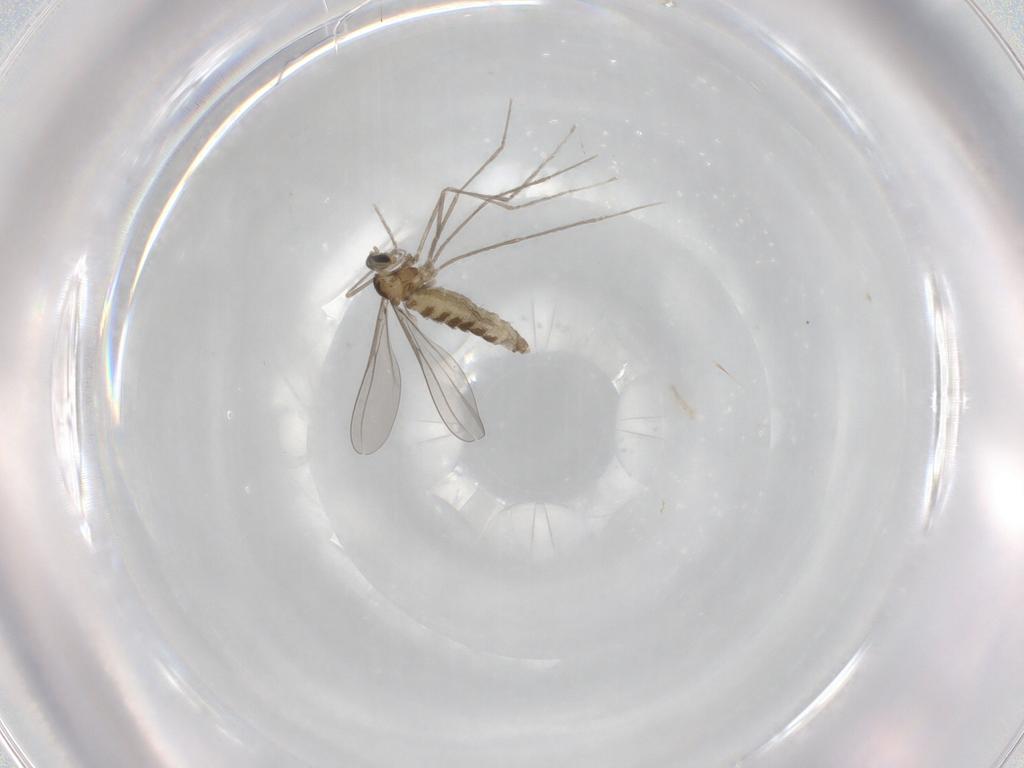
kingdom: Animalia
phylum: Arthropoda
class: Insecta
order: Diptera
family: Cecidomyiidae
